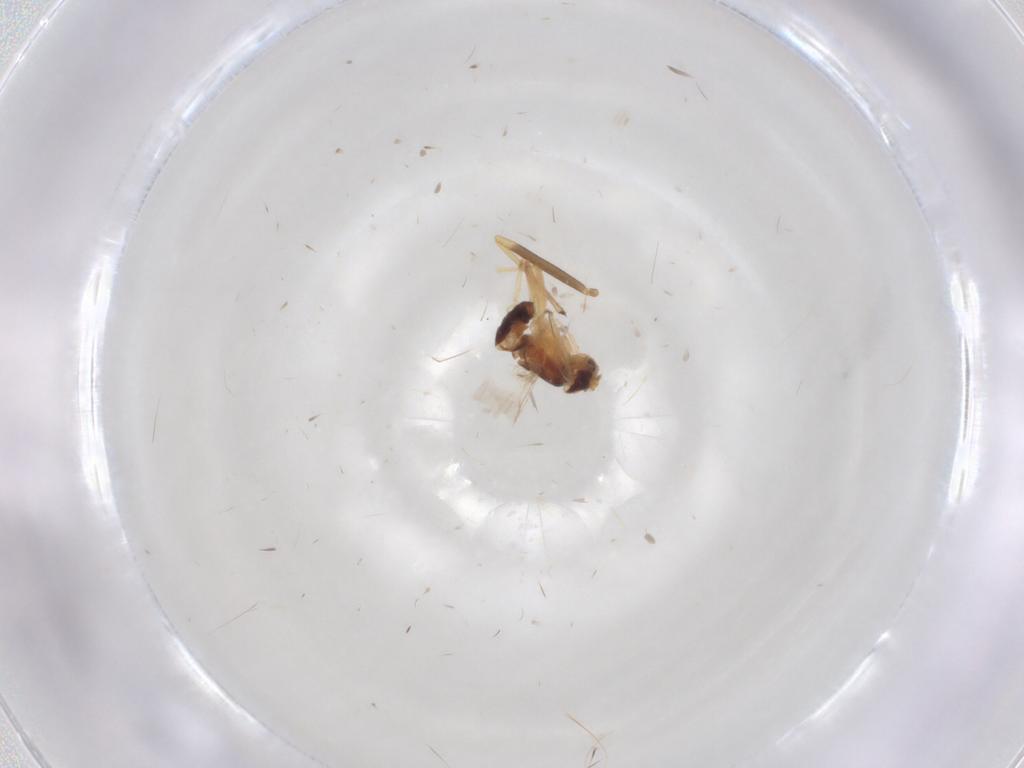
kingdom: Animalia
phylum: Arthropoda
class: Insecta
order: Diptera
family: Periscelididae
